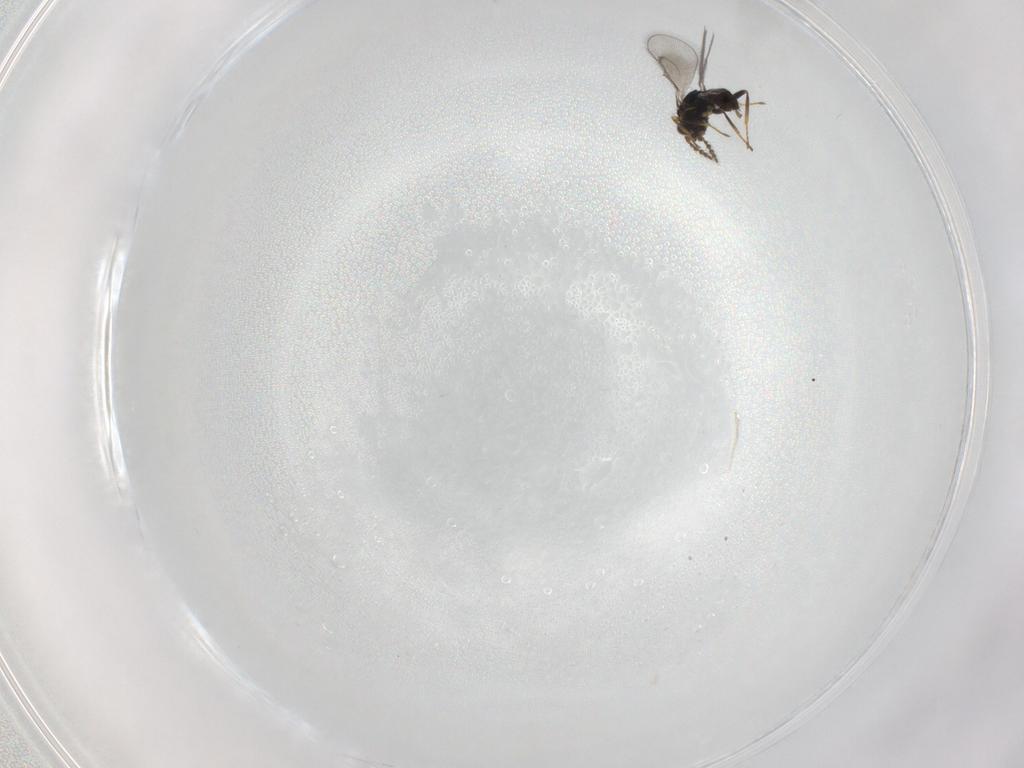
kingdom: Animalia
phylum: Arthropoda
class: Insecta
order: Hymenoptera
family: Eulophidae
